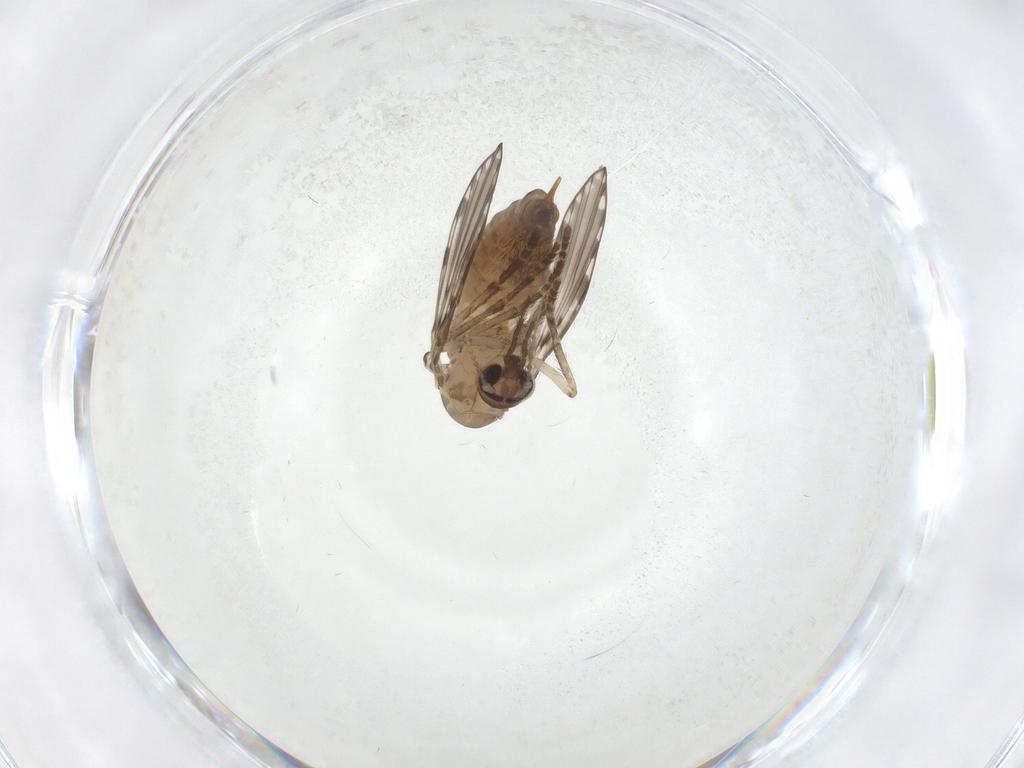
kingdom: Animalia
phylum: Arthropoda
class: Insecta
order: Diptera
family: Psychodidae
